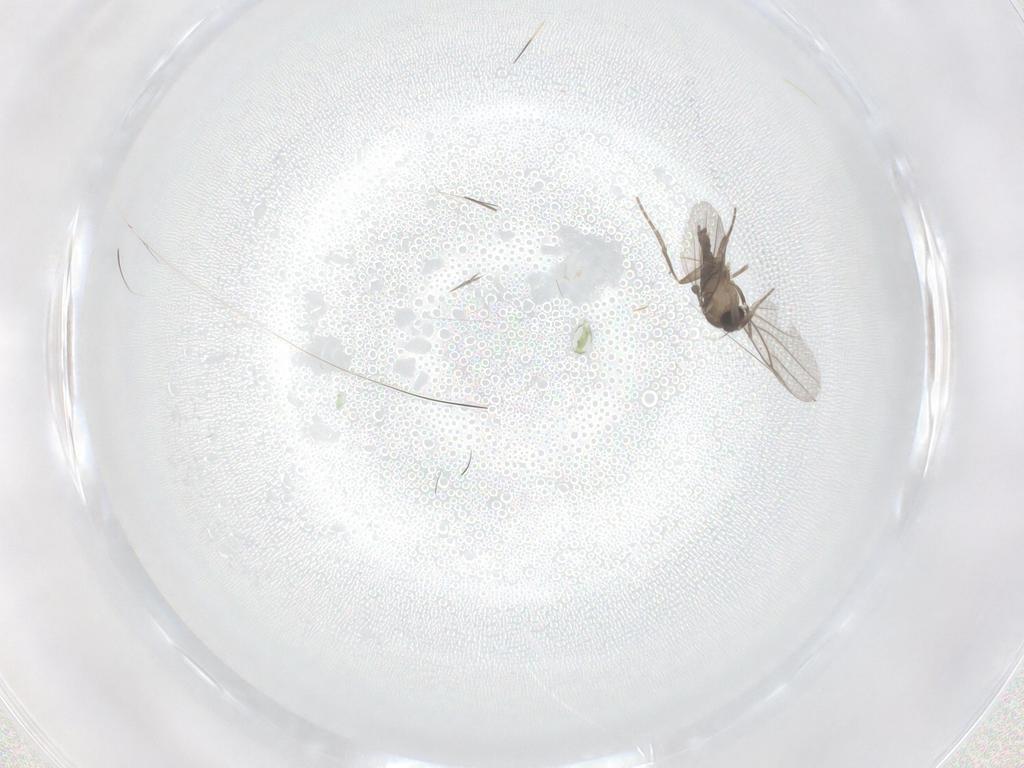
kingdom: Animalia
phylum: Arthropoda
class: Insecta
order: Diptera
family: Phoridae
